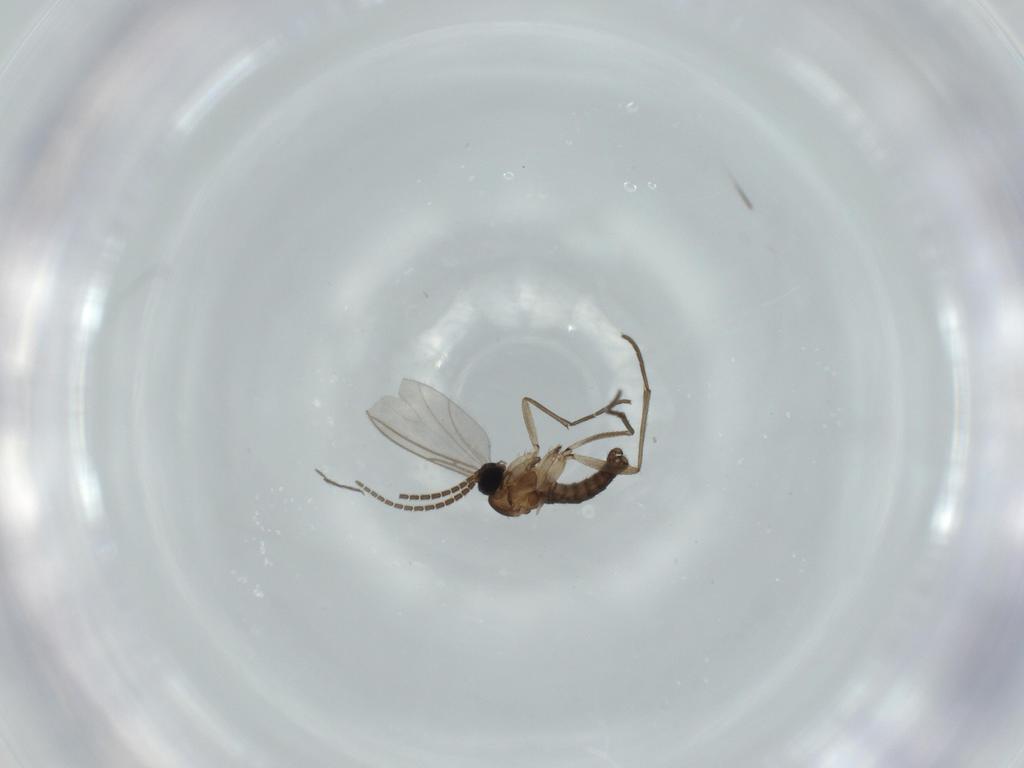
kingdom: Animalia
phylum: Arthropoda
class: Insecta
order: Diptera
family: Sciaridae
